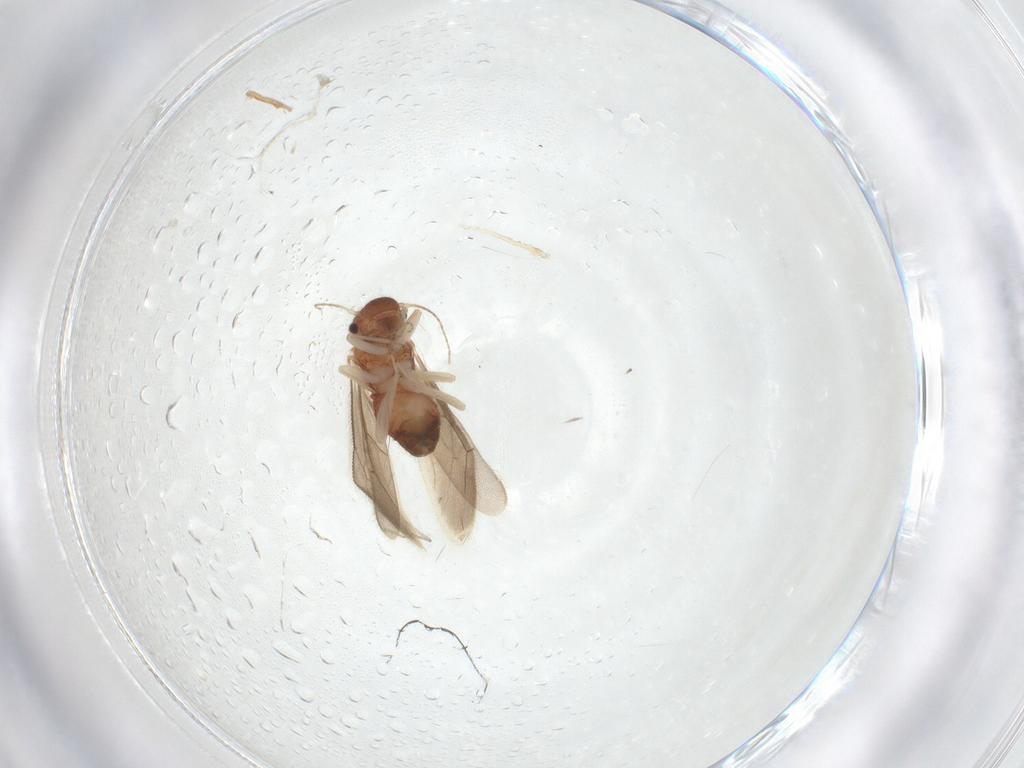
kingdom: Animalia
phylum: Arthropoda
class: Insecta
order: Psocodea
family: Archipsocidae
